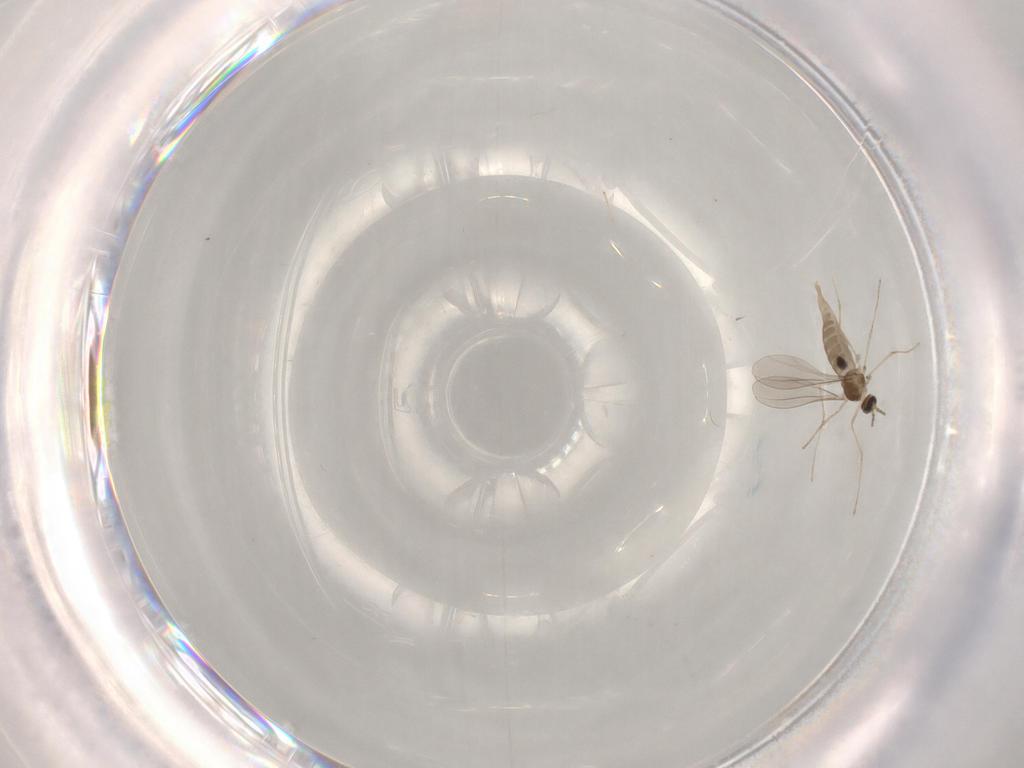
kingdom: Animalia
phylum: Arthropoda
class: Insecta
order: Diptera
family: Chironomidae
